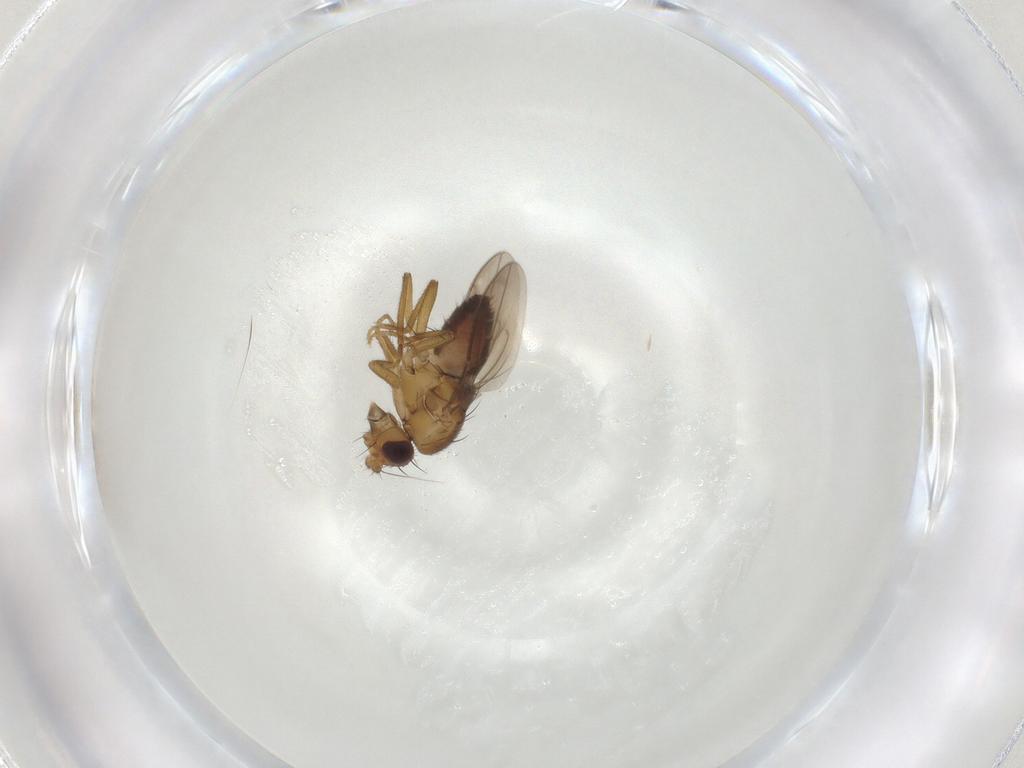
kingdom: Animalia
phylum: Arthropoda
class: Insecta
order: Diptera
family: Sphaeroceridae
